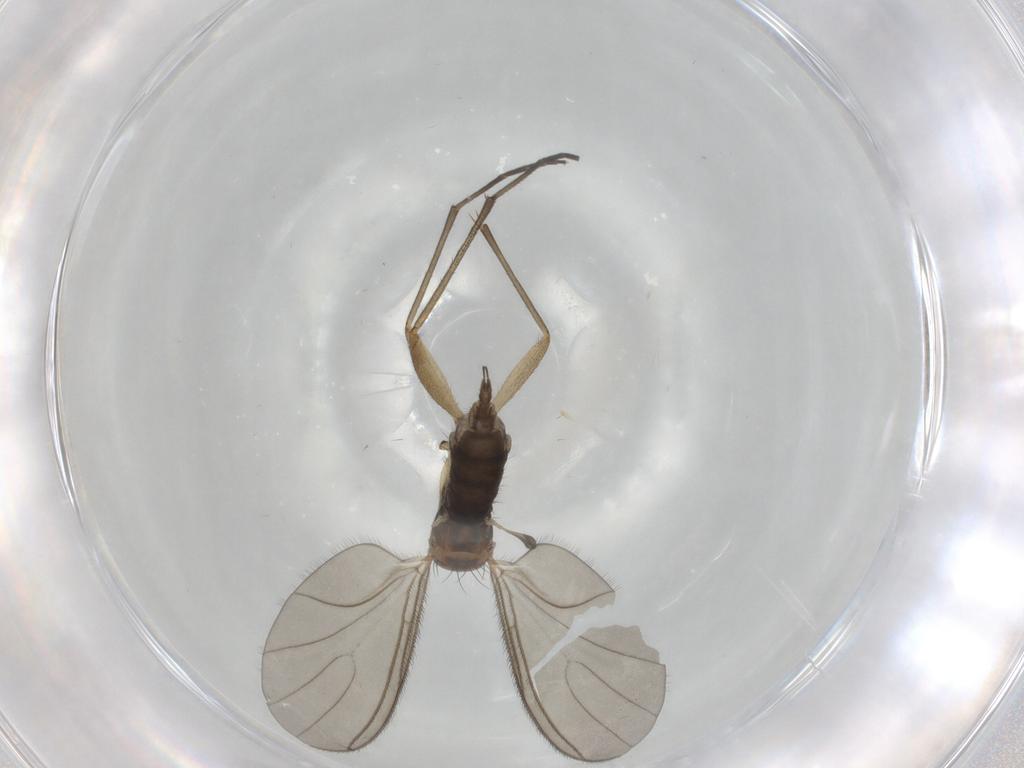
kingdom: Animalia
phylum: Arthropoda
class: Insecta
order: Diptera
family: Sciaridae
